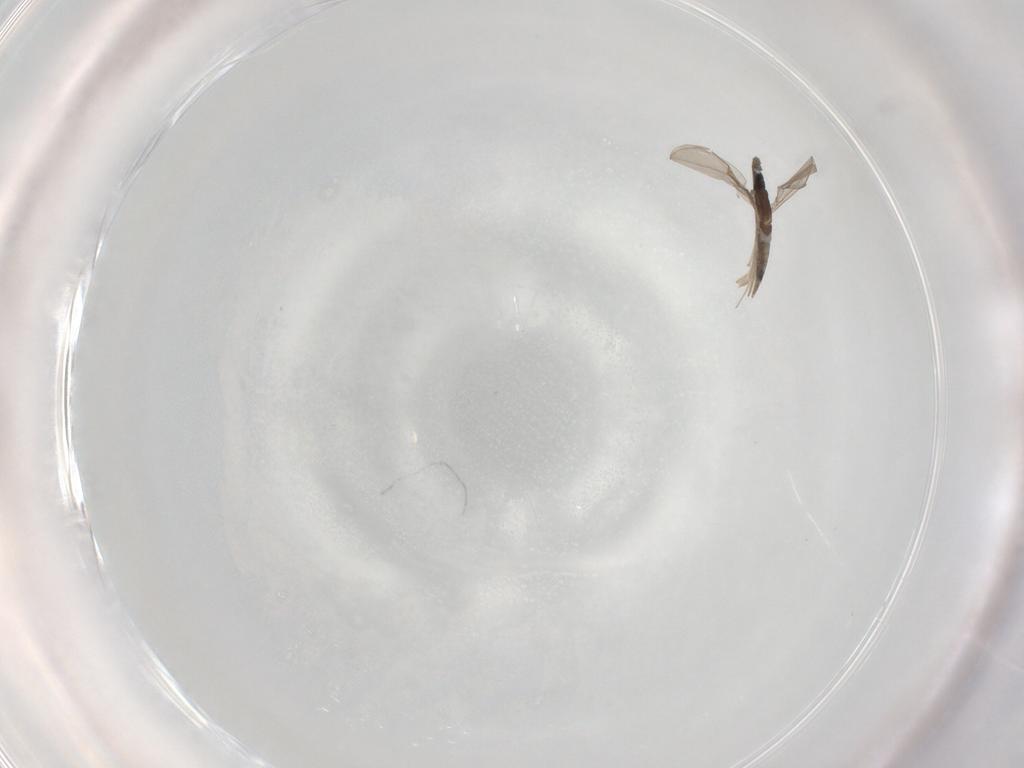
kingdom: Animalia
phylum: Arthropoda
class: Insecta
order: Diptera
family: Cecidomyiidae
